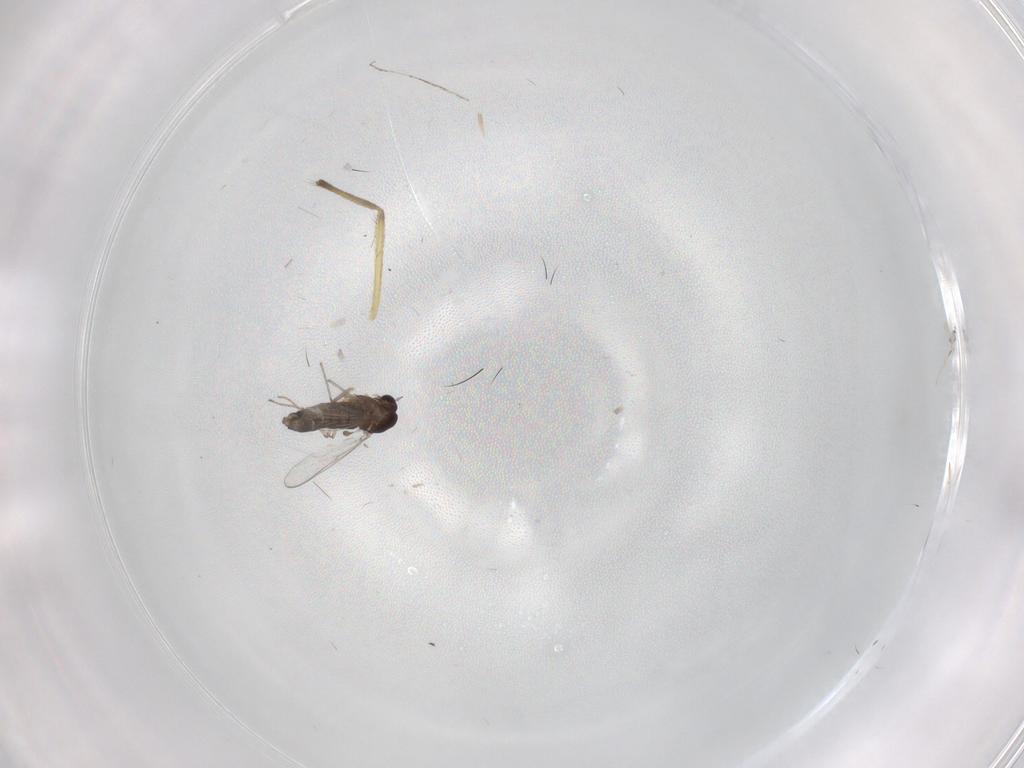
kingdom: Animalia
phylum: Arthropoda
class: Insecta
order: Diptera
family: Chironomidae
